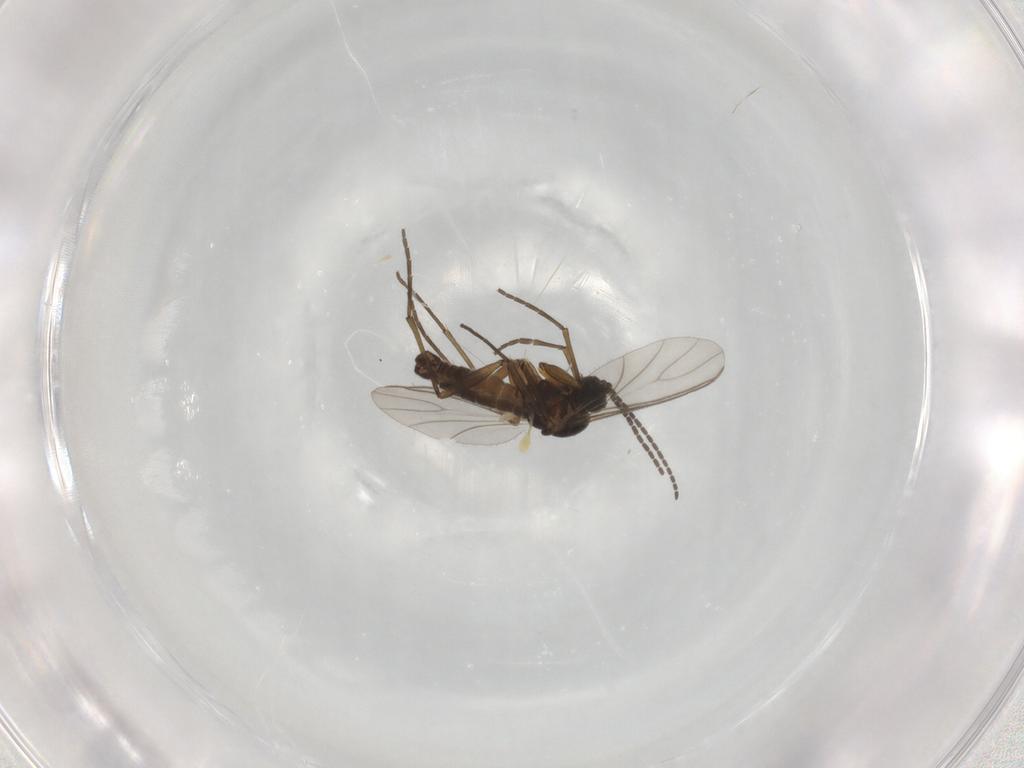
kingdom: Animalia
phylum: Arthropoda
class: Insecta
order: Diptera
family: Sciaridae
